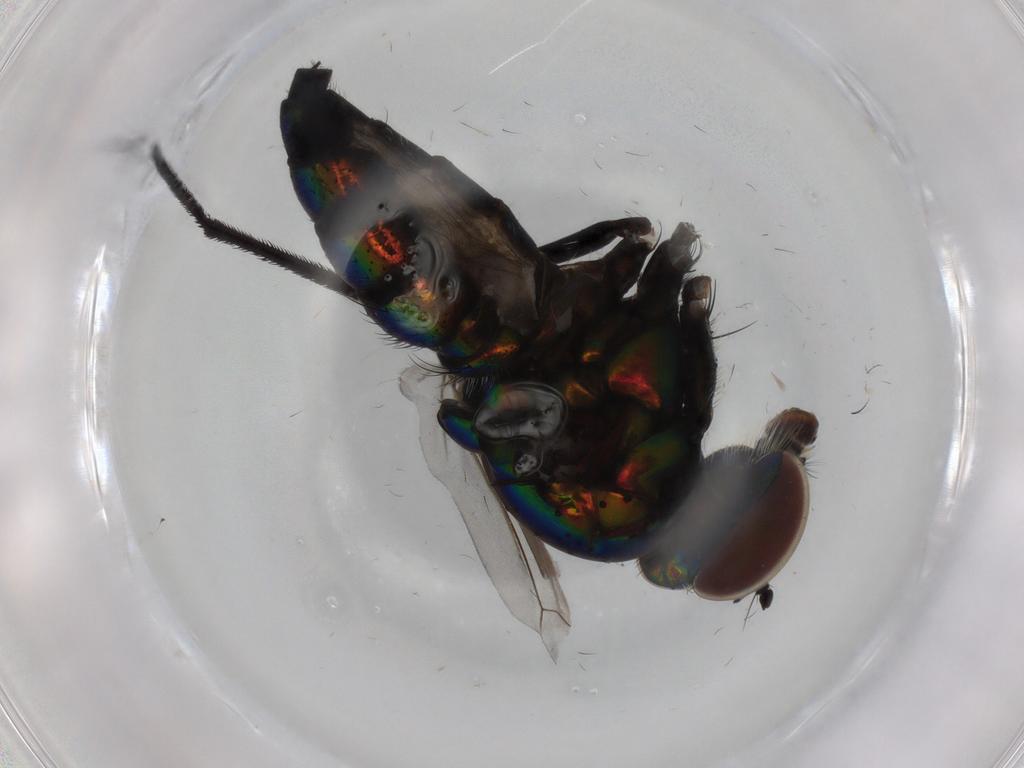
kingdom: Animalia
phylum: Arthropoda
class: Insecta
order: Diptera
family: Dolichopodidae
